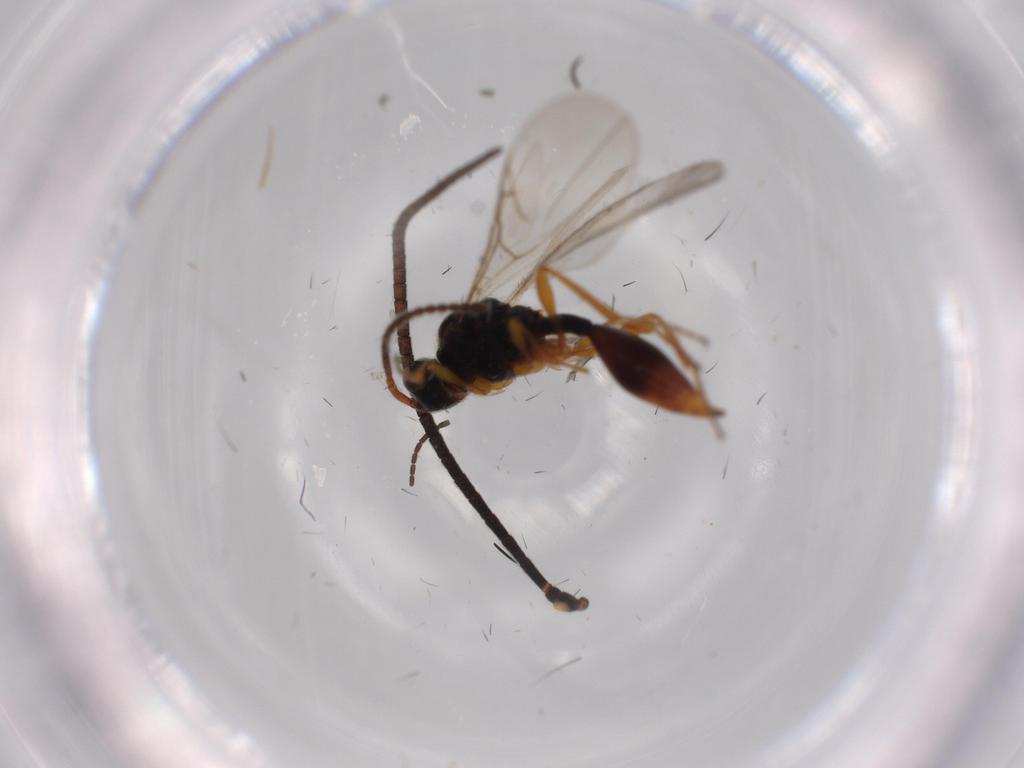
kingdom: Animalia
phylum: Arthropoda
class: Insecta
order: Hymenoptera
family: Ichneumonidae
